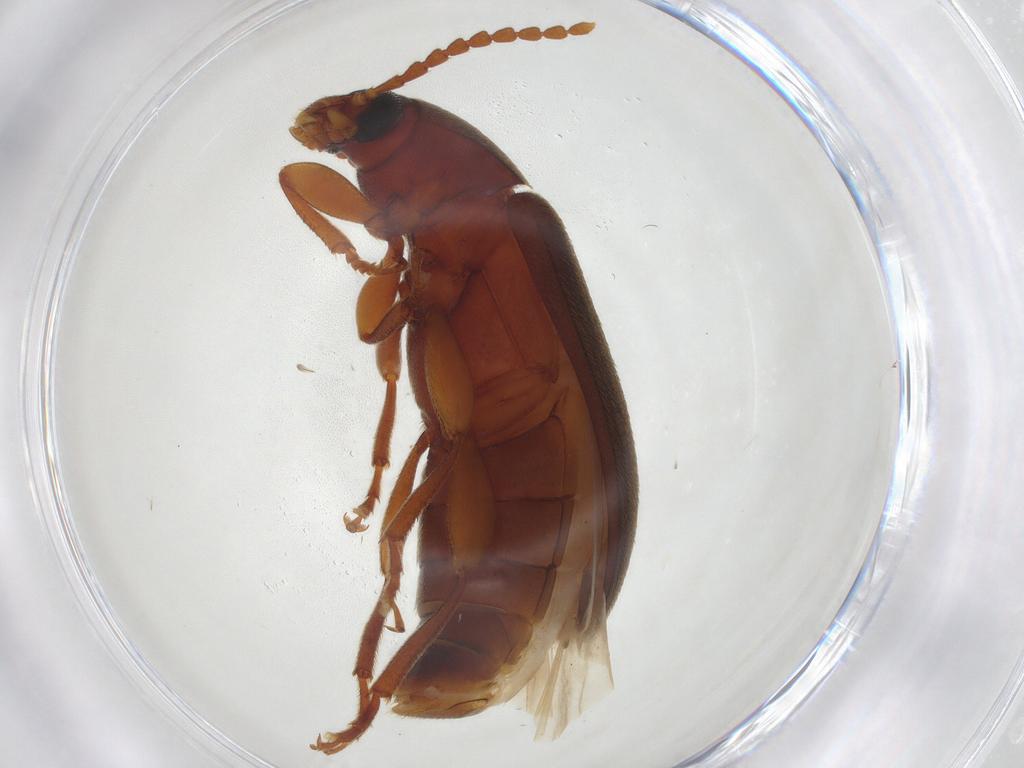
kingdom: Animalia
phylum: Arthropoda
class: Insecta
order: Coleoptera
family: Tenebrionidae
